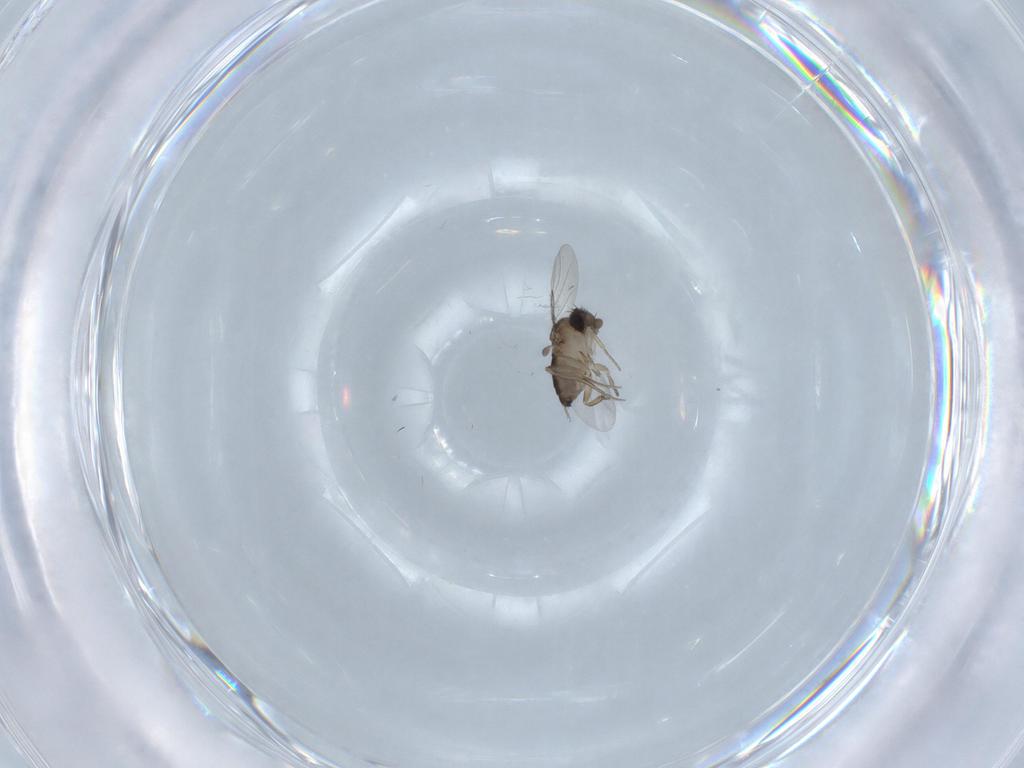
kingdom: Animalia
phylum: Arthropoda
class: Insecta
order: Diptera
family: Phoridae
